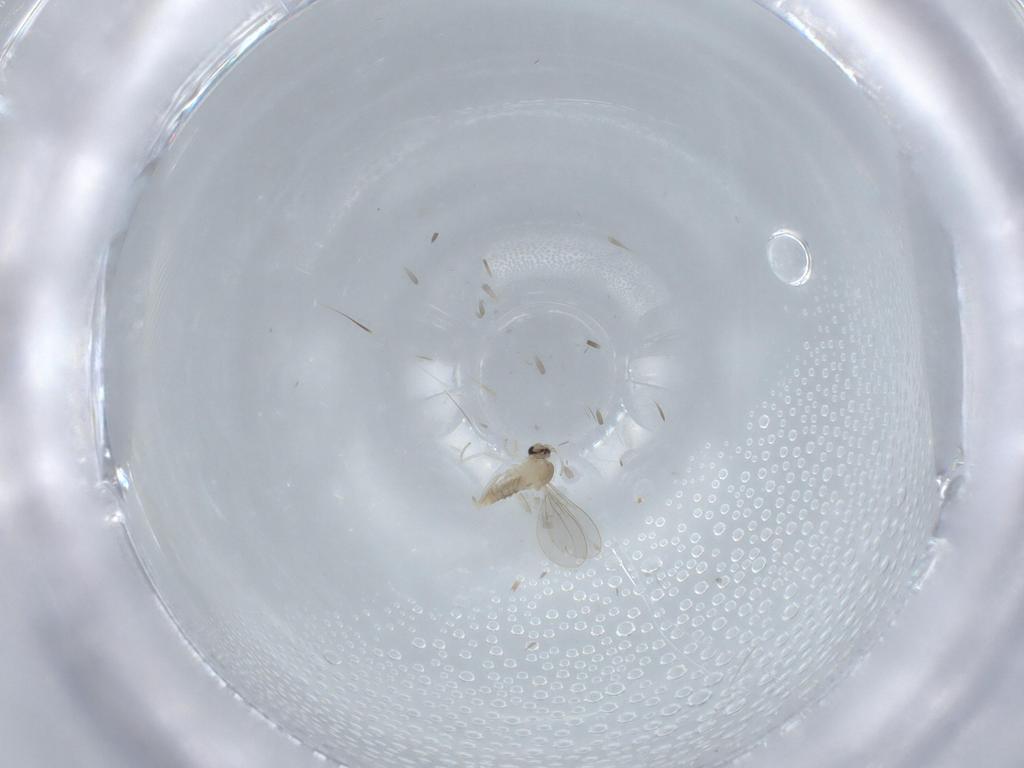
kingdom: Animalia
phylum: Arthropoda
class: Insecta
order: Diptera
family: Cecidomyiidae
